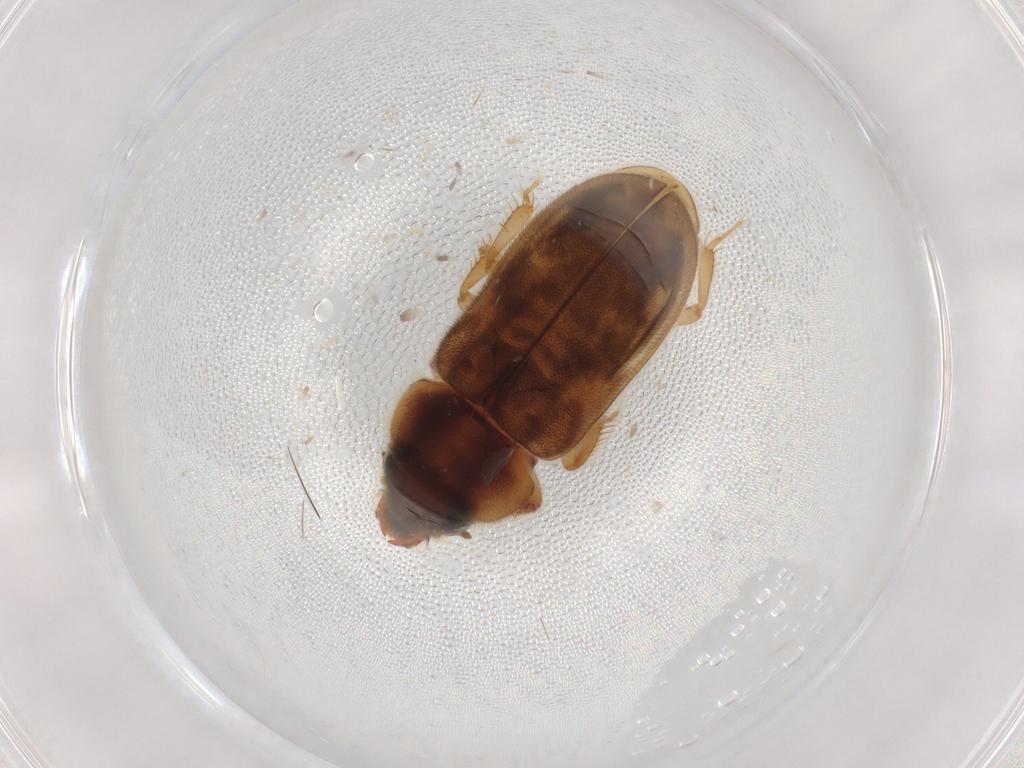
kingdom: Animalia
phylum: Arthropoda
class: Insecta
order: Coleoptera
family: Heteroceridae
